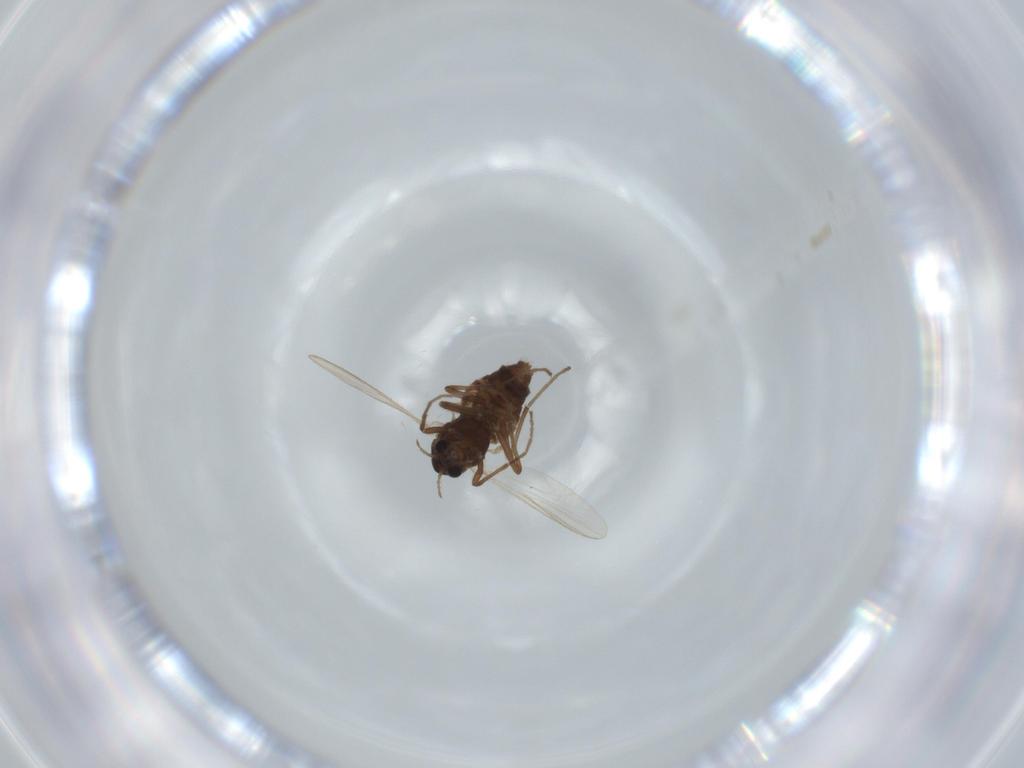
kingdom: Animalia
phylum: Arthropoda
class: Insecta
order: Diptera
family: Chironomidae
